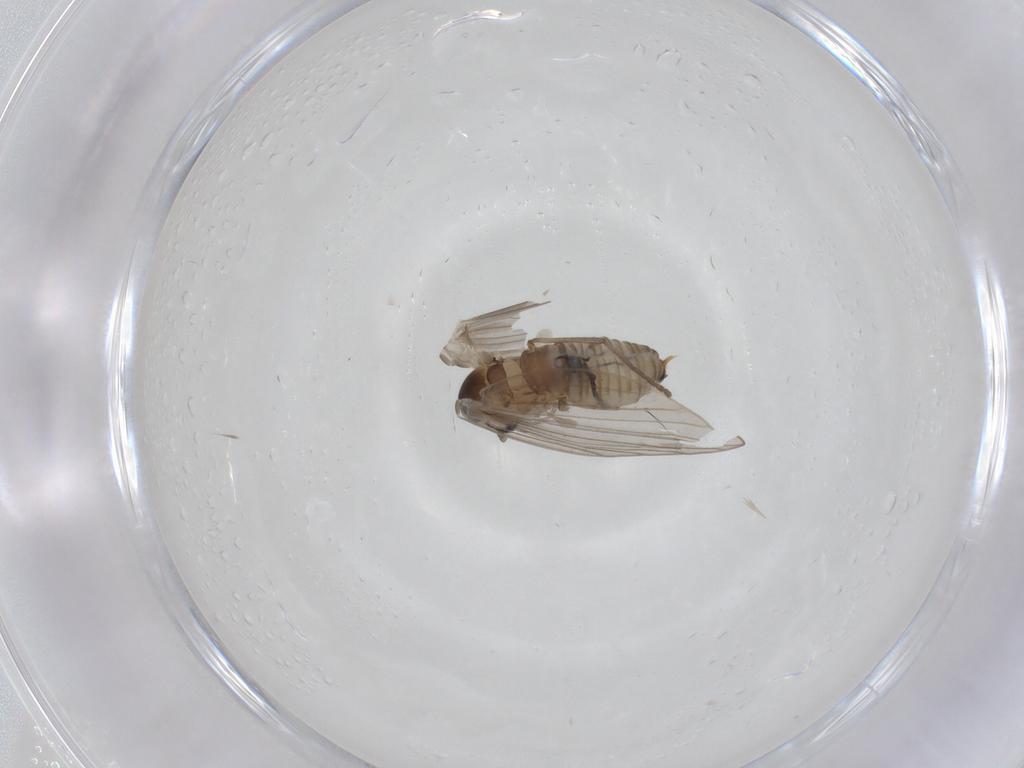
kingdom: Animalia
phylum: Arthropoda
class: Insecta
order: Diptera
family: Psychodidae
